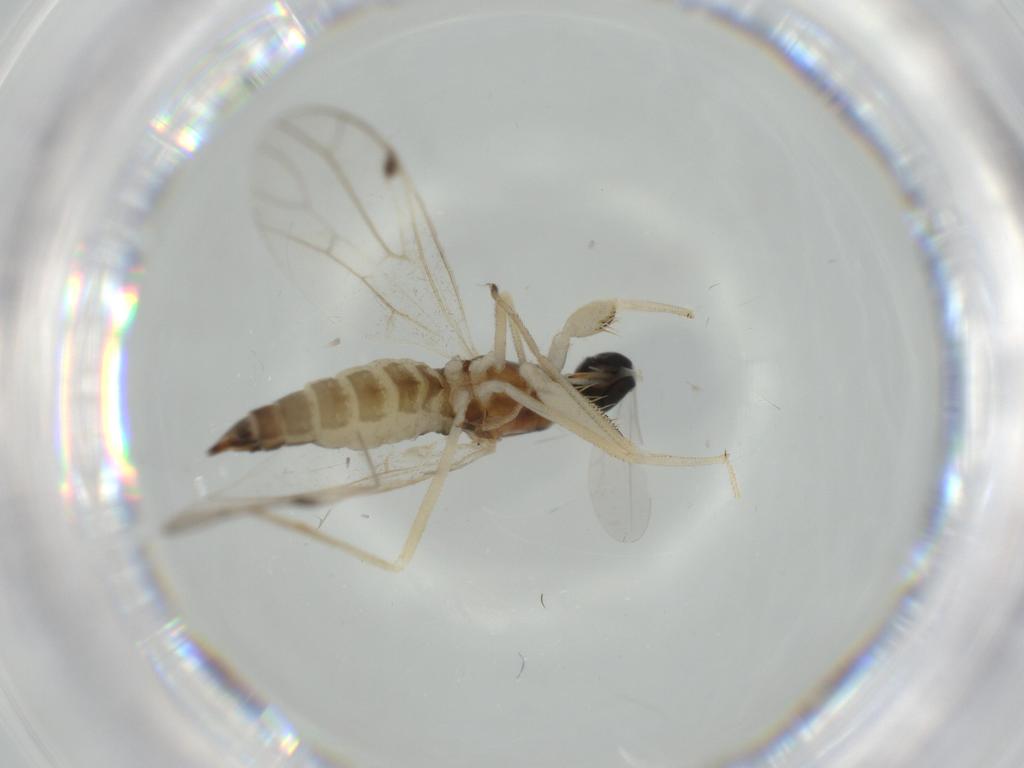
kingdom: Animalia
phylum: Arthropoda
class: Insecta
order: Diptera
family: Empididae
